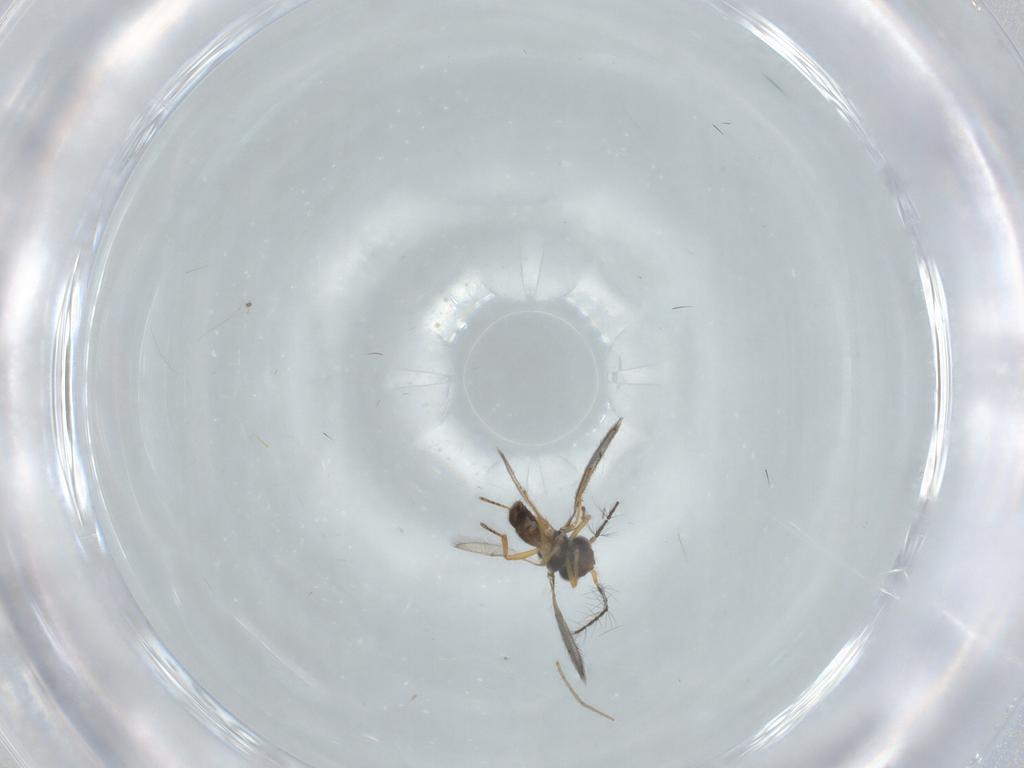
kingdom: Animalia
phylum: Arthropoda
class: Insecta
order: Hymenoptera
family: Eulophidae
